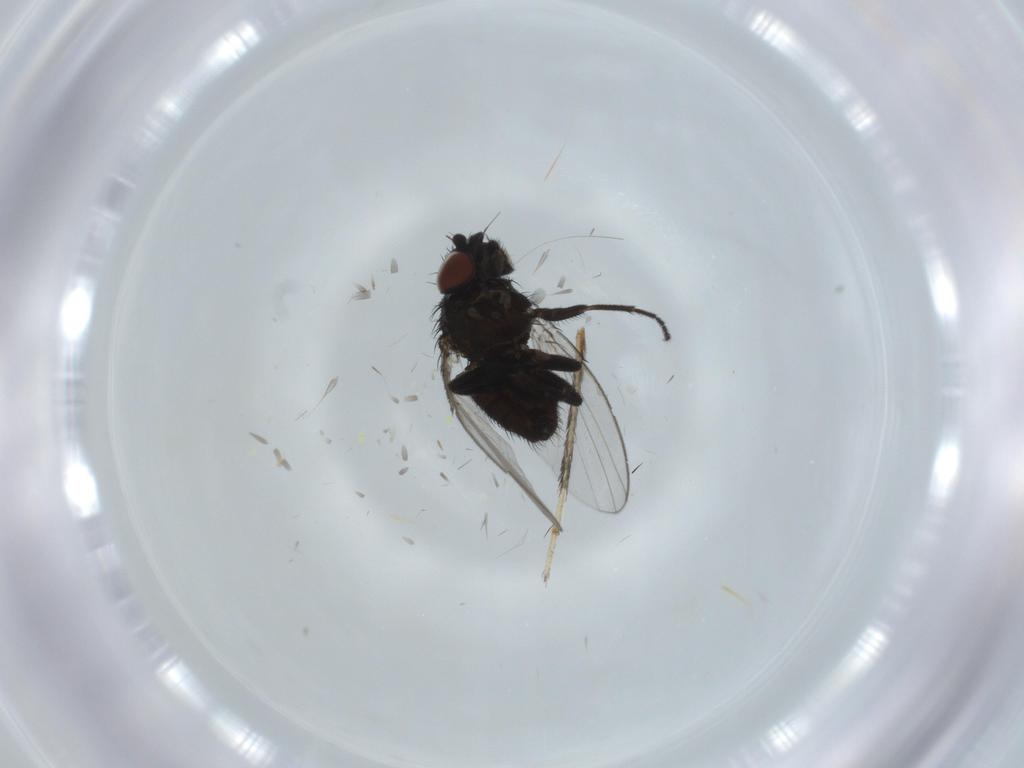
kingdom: Animalia
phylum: Arthropoda
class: Insecta
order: Diptera
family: Milichiidae
